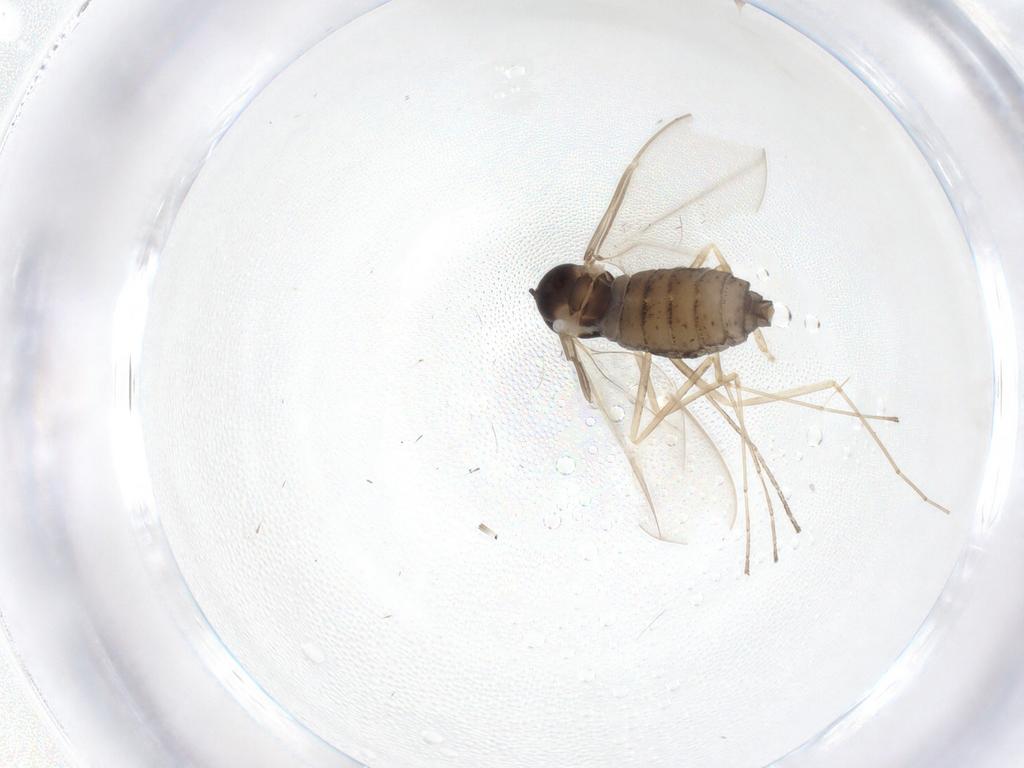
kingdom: Animalia
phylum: Arthropoda
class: Insecta
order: Diptera
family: Cecidomyiidae
